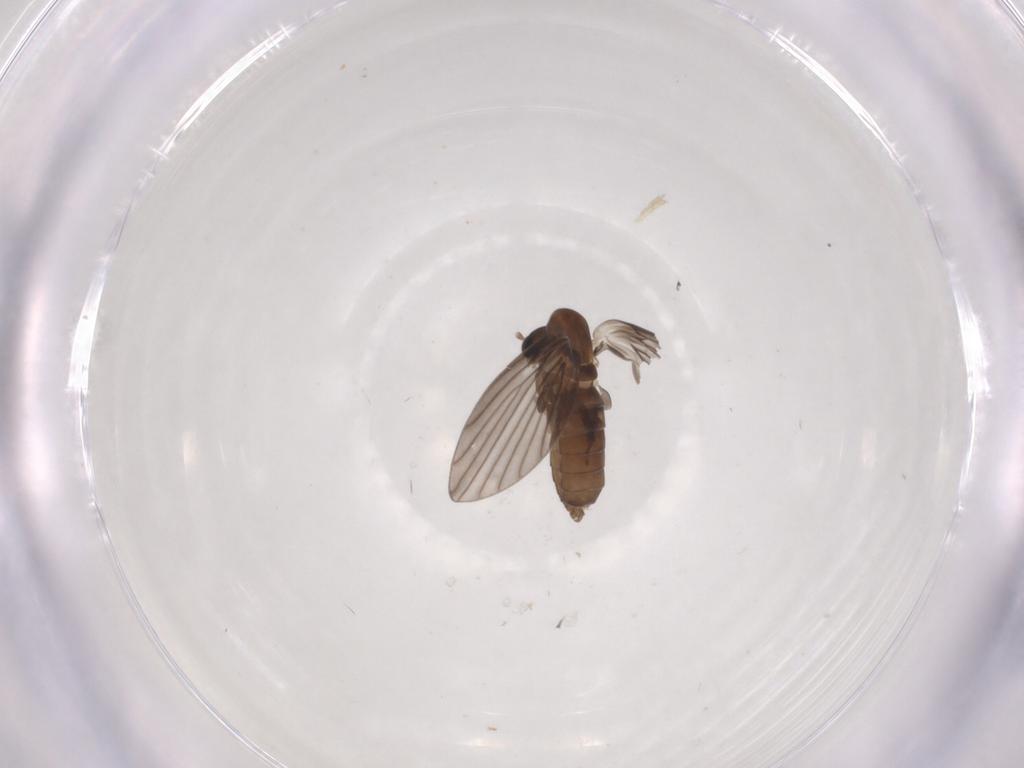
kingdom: Animalia
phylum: Arthropoda
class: Insecta
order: Diptera
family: Psychodidae
